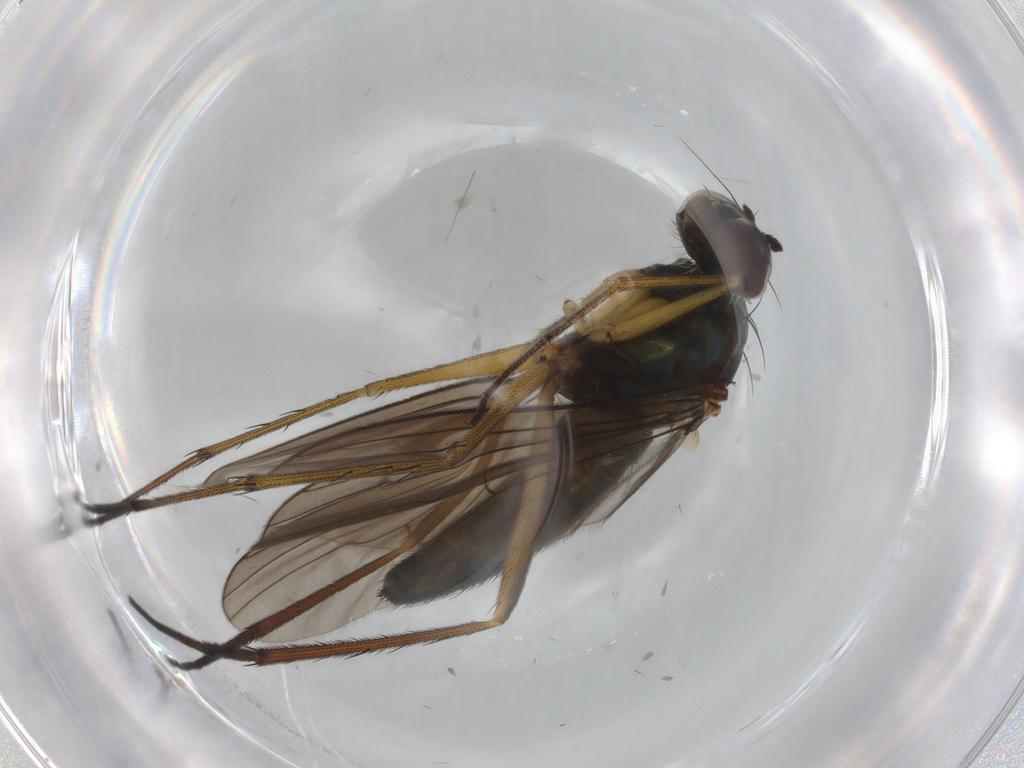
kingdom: Animalia
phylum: Arthropoda
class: Insecta
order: Diptera
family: Dolichopodidae
